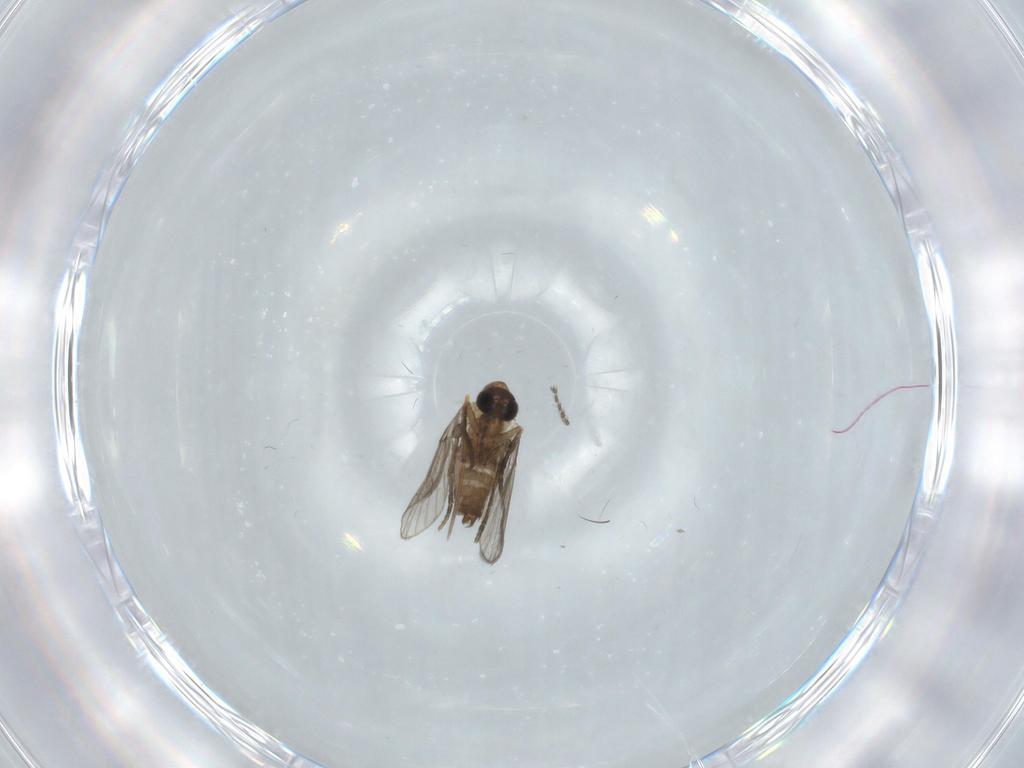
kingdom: Animalia
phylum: Arthropoda
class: Insecta
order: Diptera
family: Chironomidae
